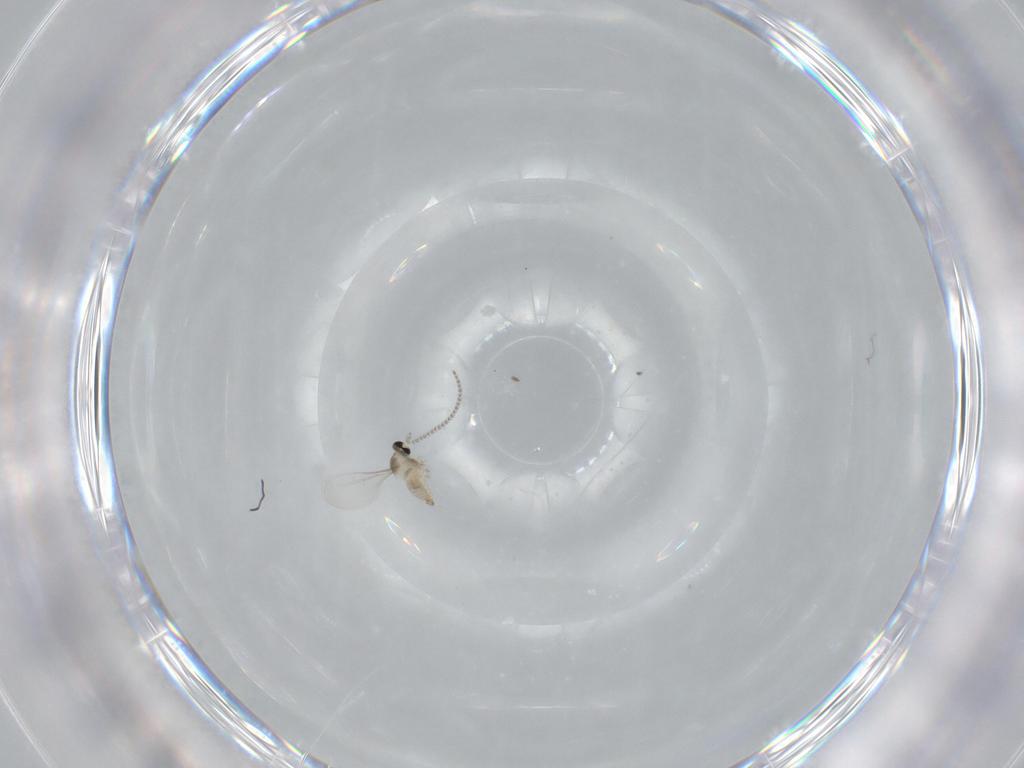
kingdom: Animalia
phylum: Arthropoda
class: Insecta
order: Diptera
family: Cecidomyiidae
